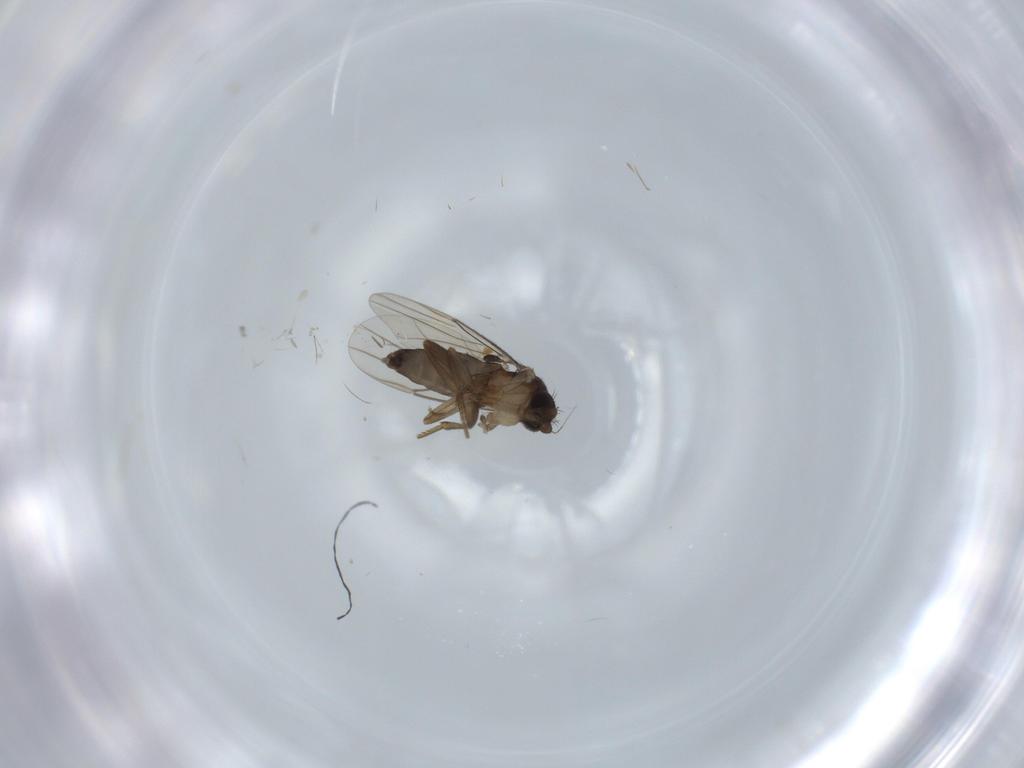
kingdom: Animalia
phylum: Arthropoda
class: Insecta
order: Diptera
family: Phoridae
